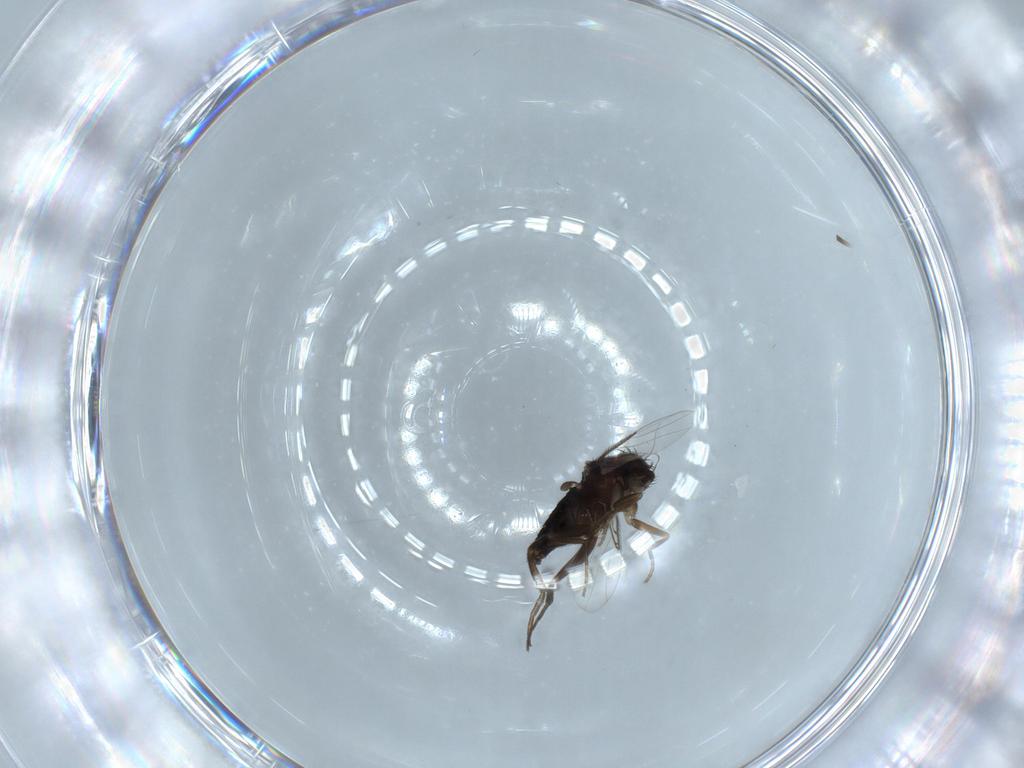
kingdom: Animalia
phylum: Arthropoda
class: Insecta
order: Diptera
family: Phoridae
